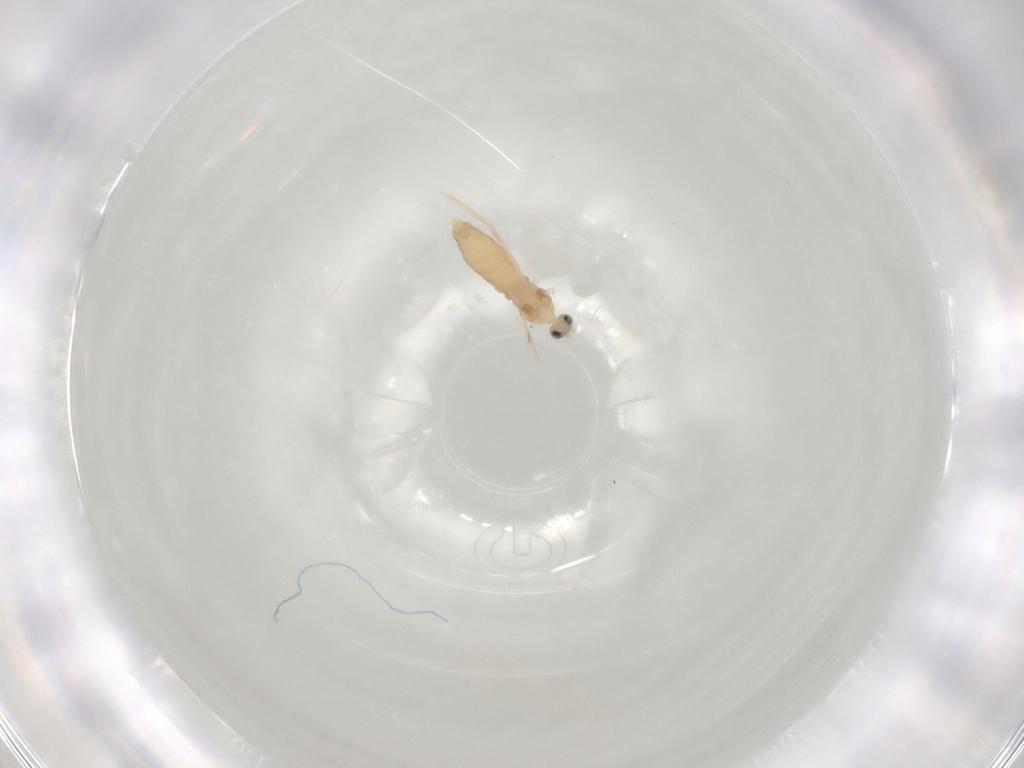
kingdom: Animalia
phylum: Arthropoda
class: Insecta
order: Diptera
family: Cecidomyiidae
